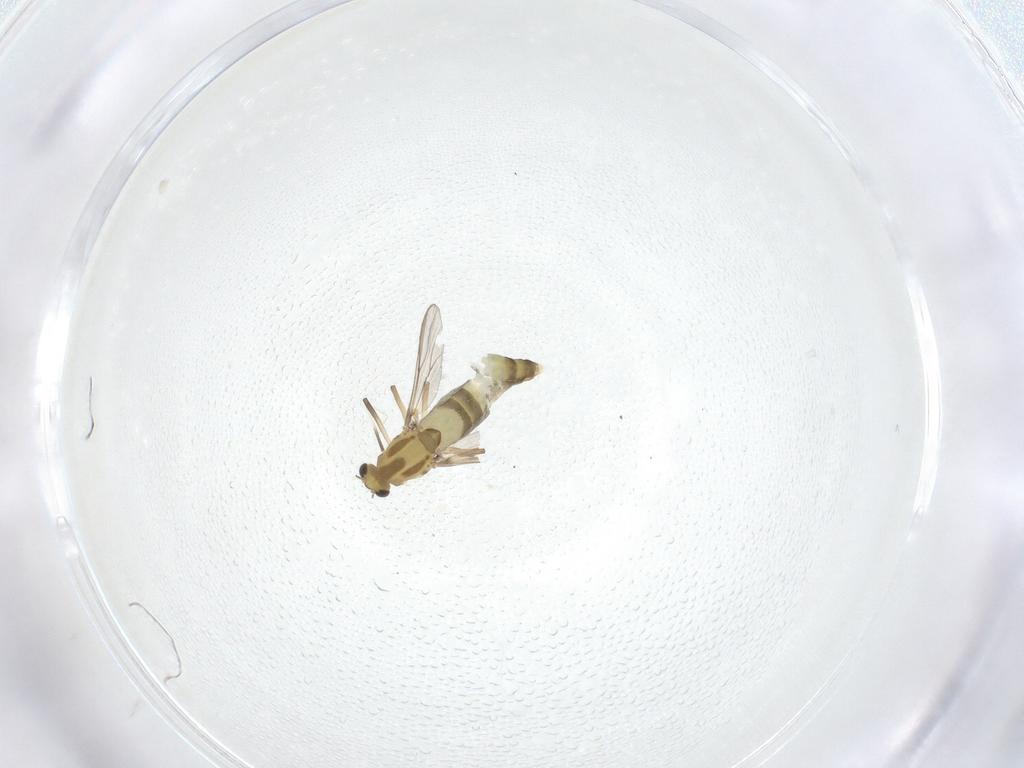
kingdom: Animalia
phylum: Arthropoda
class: Insecta
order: Diptera
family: Chironomidae
